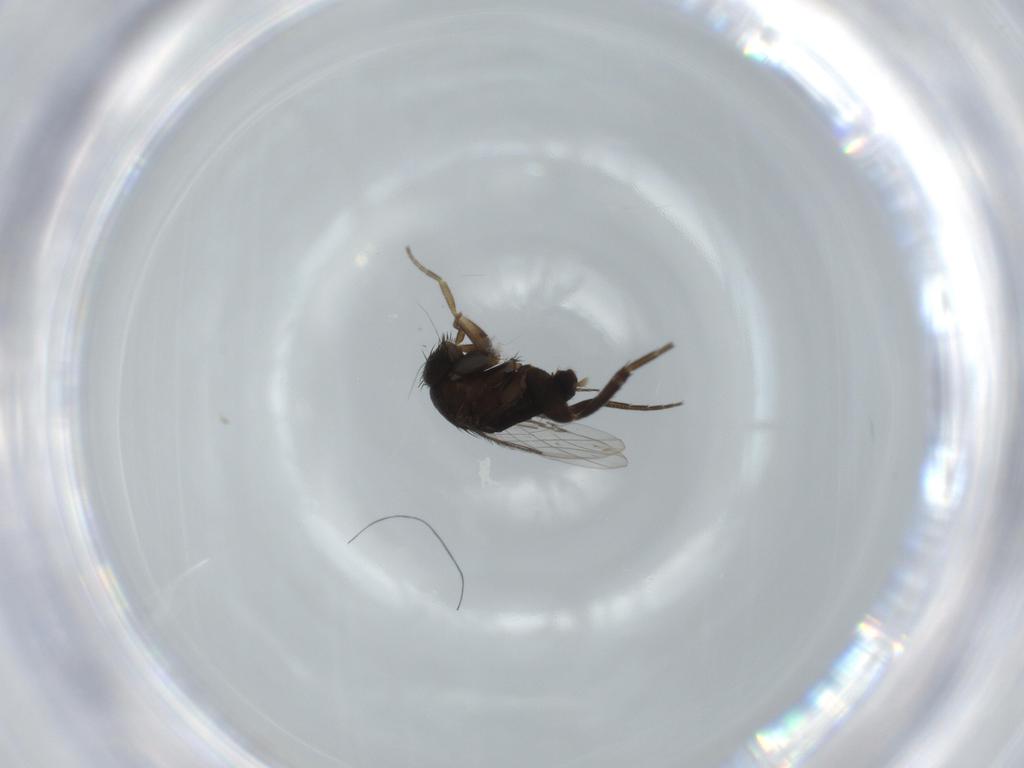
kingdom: Animalia
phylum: Arthropoda
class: Insecta
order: Diptera
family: Phoridae
